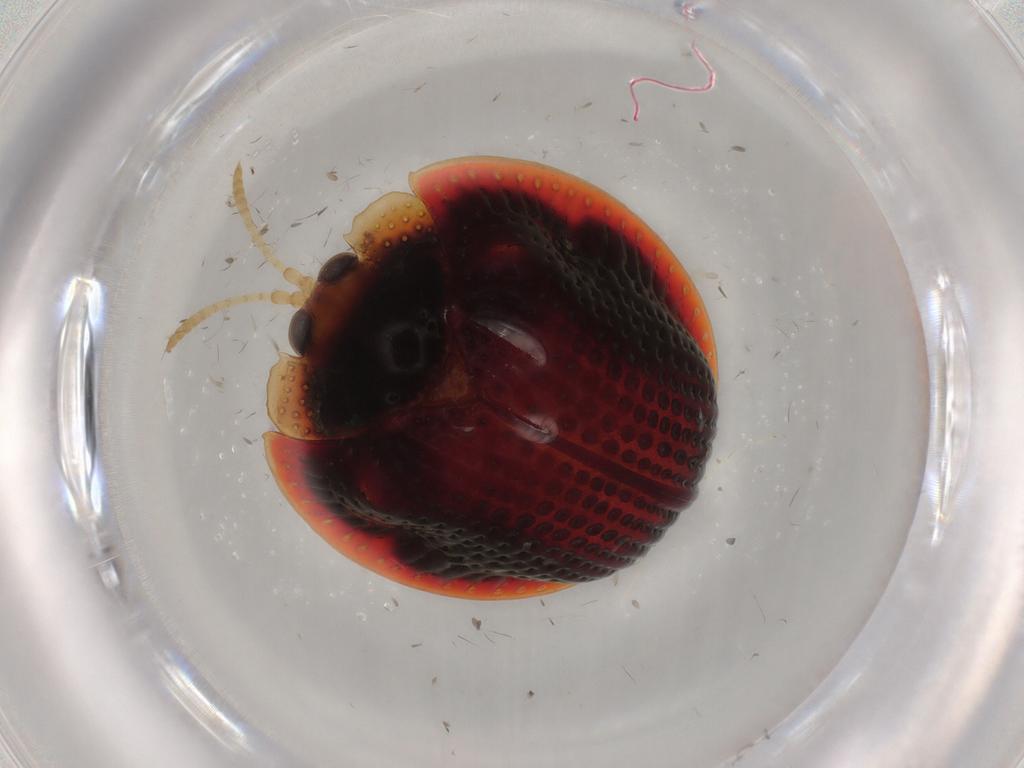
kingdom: Animalia
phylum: Arthropoda
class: Insecta
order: Coleoptera
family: Chrysomelidae
